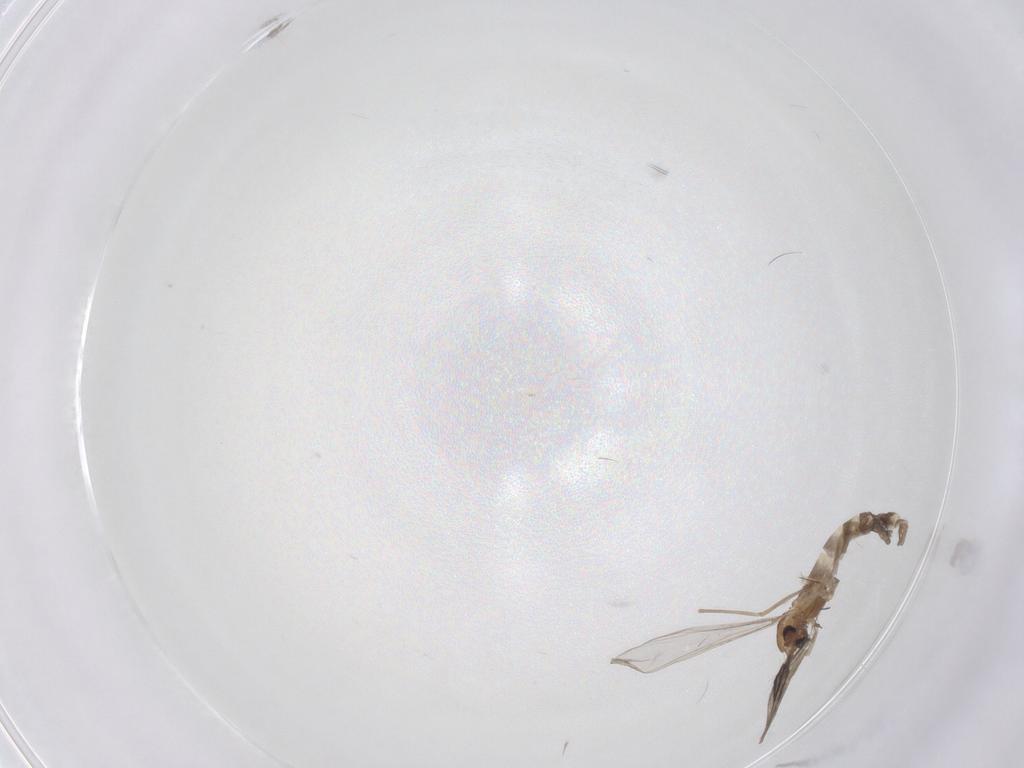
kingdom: Animalia
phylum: Arthropoda
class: Insecta
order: Diptera
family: Chironomidae
